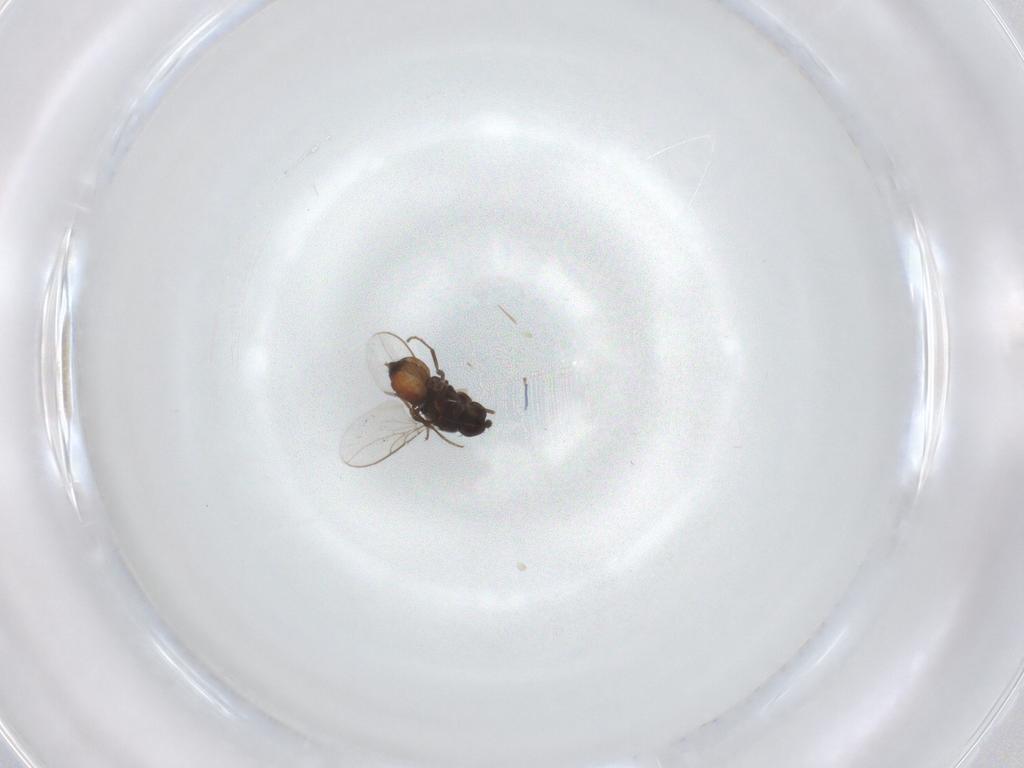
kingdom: Animalia
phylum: Arthropoda
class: Insecta
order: Diptera
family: Sphaeroceridae
